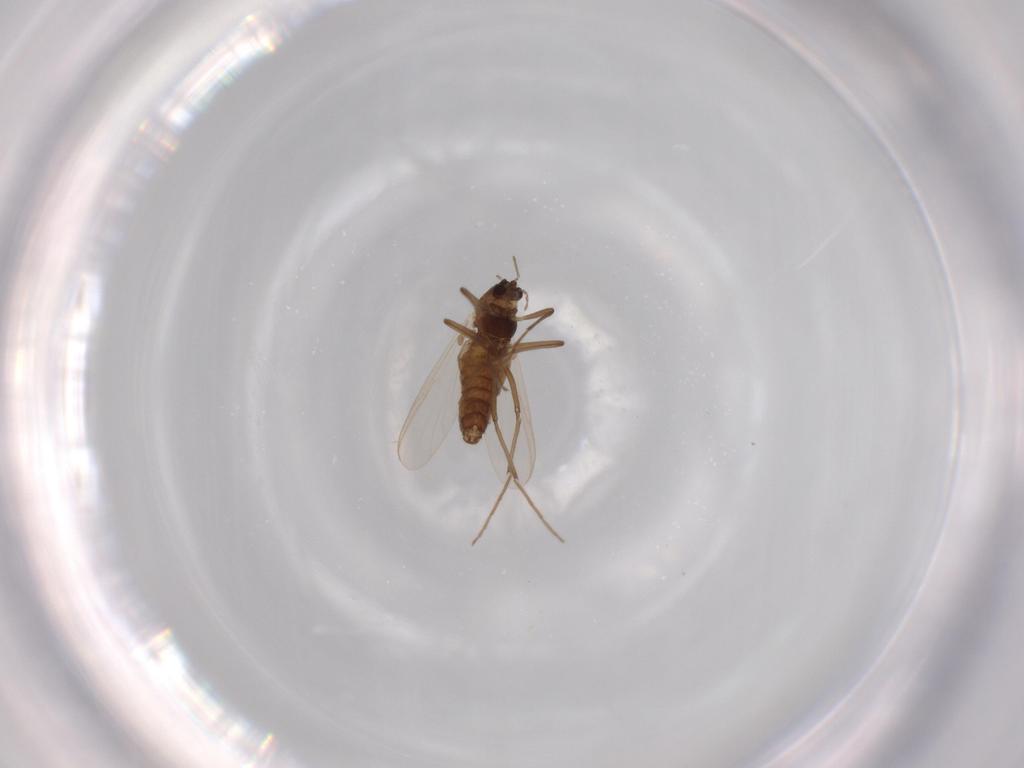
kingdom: Animalia
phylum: Arthropoda
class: Insecta
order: Diptera
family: Chironomidae
